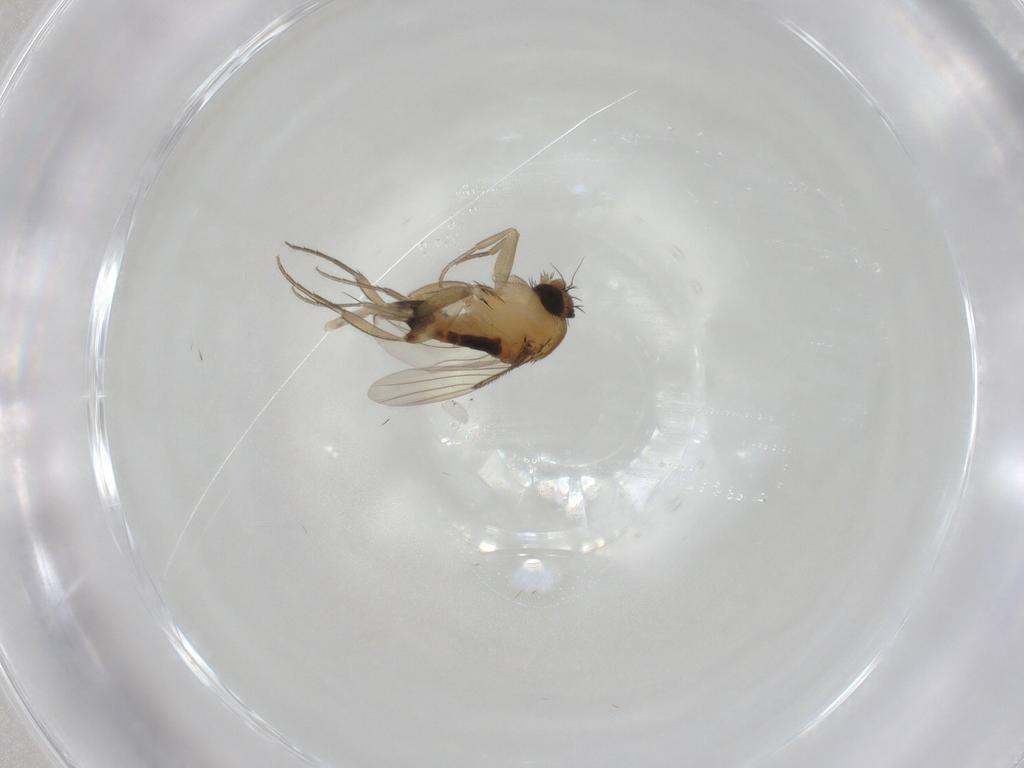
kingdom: Animalia
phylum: Arthropoda
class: Insecta
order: Diptera
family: Phoridae
